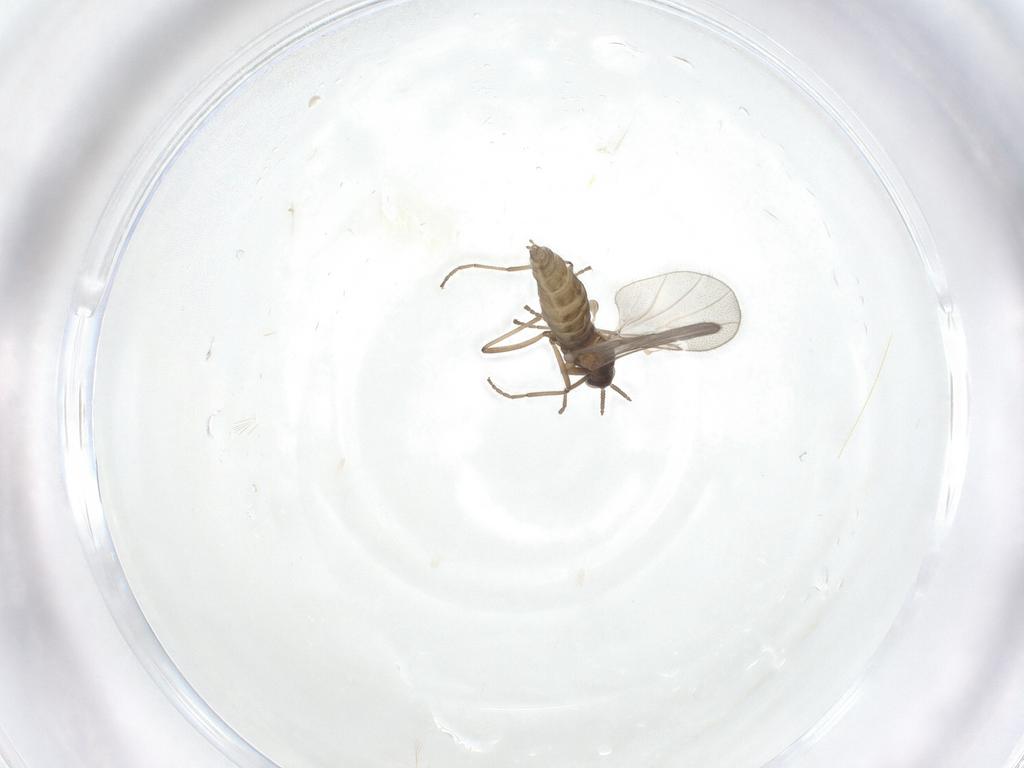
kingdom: Animalia
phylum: Arthropoda
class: Insecta
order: Diptera
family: Cecidomyiidae
